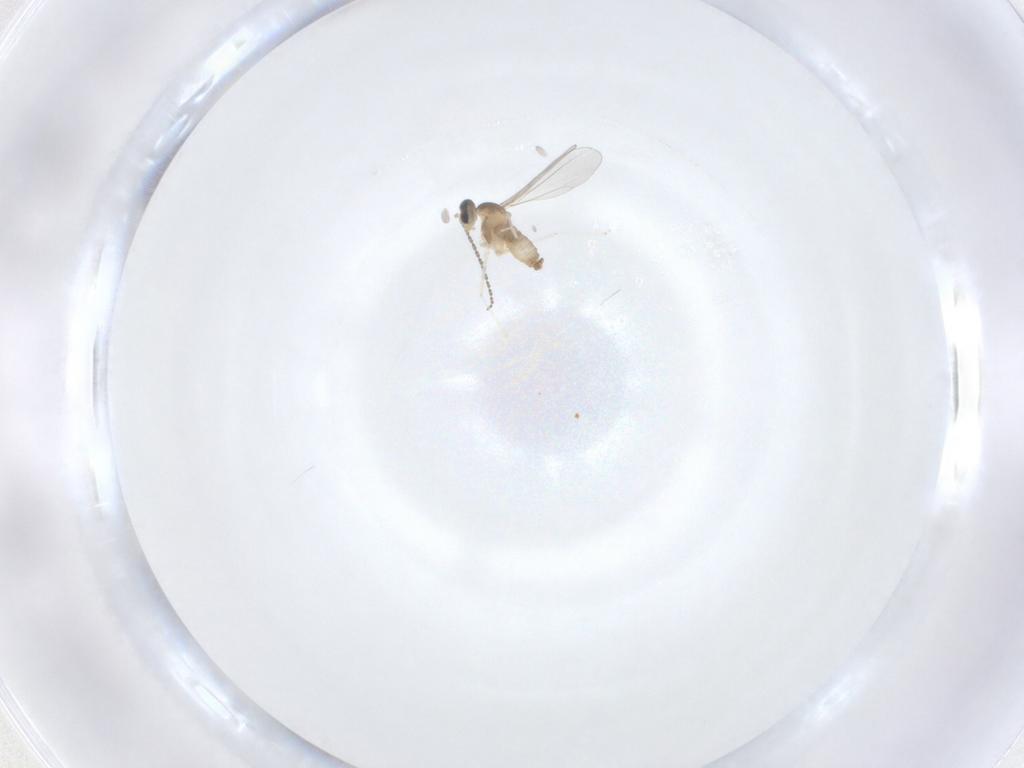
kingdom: Animalia
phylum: Arthropoda
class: Insecta
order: Diptera
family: Cecidomyiidae
